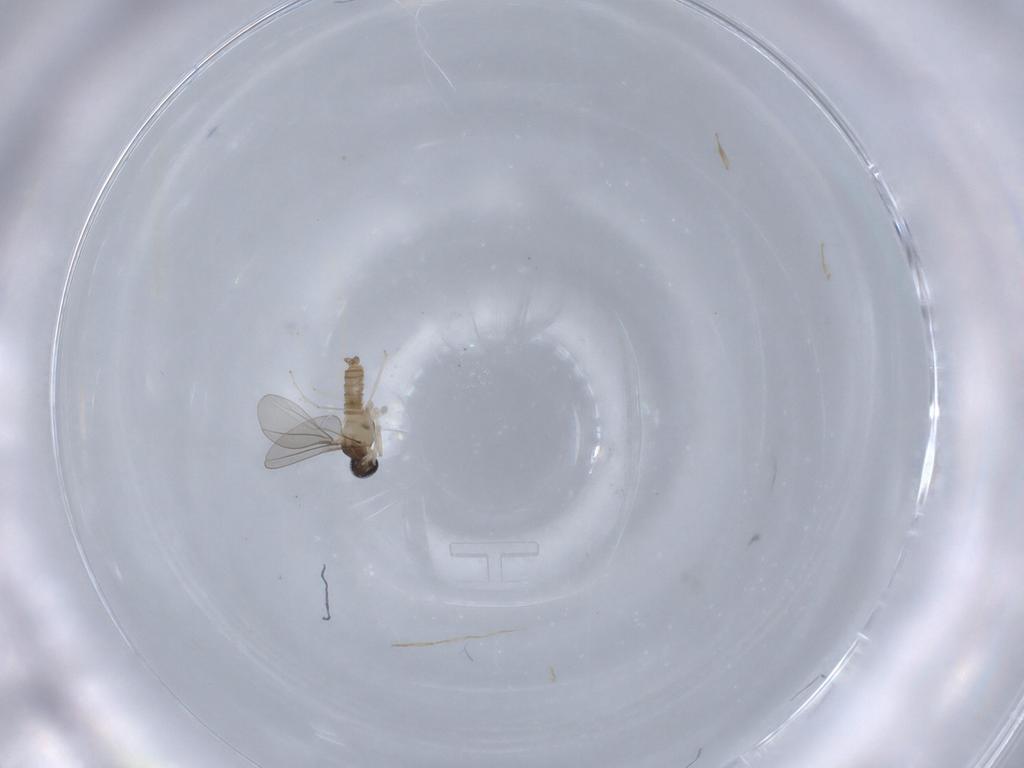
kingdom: Animalia
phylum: Arthropoda
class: Insecta
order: Diptera
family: Cecidomyiidae
